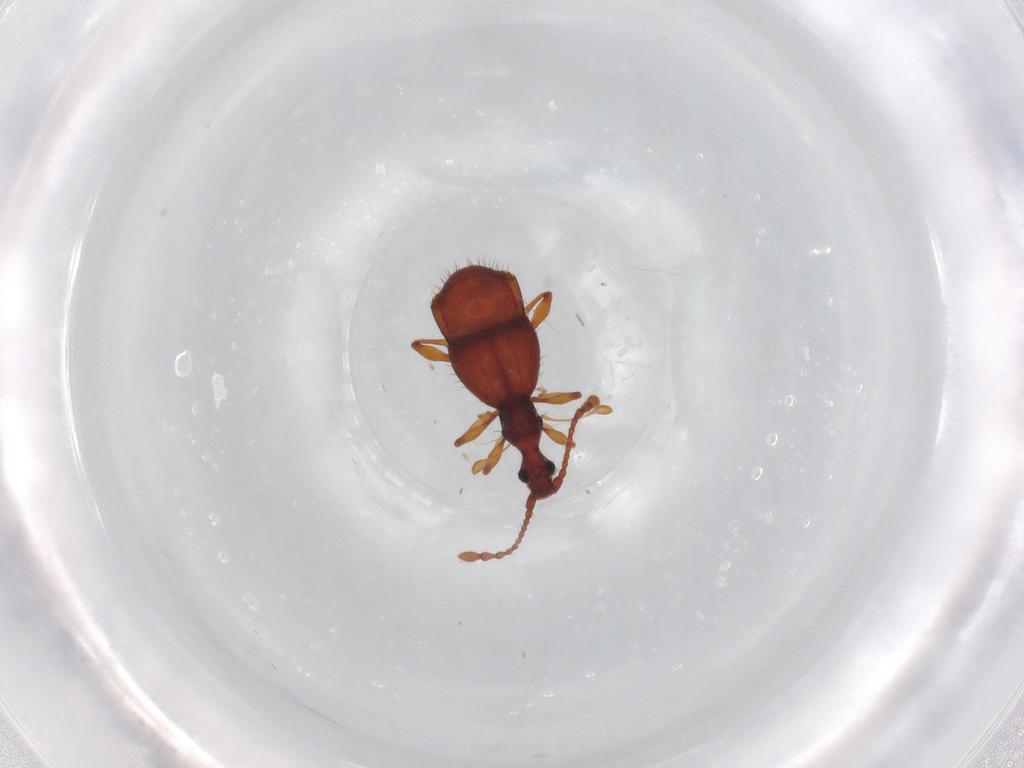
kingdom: Animalia
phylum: Arthropoda
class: Insecta
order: Coleoptera
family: Staphylinidae
